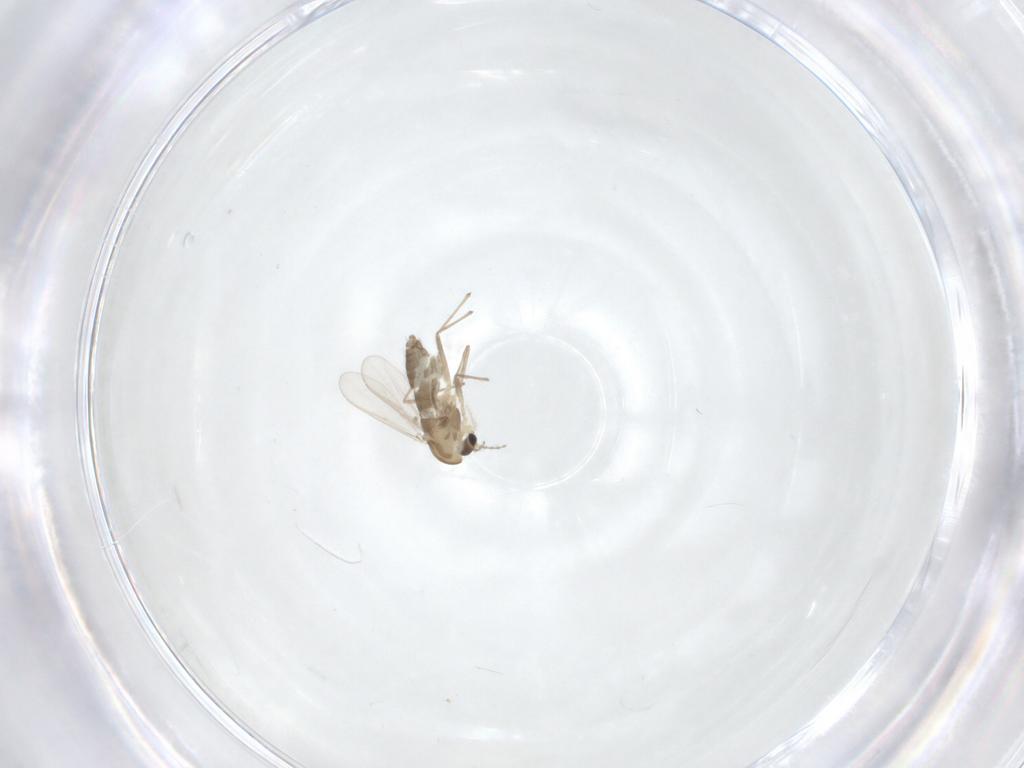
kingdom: Animalia
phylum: Arthropoda
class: Insecta
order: Diptera
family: Chironomidae
